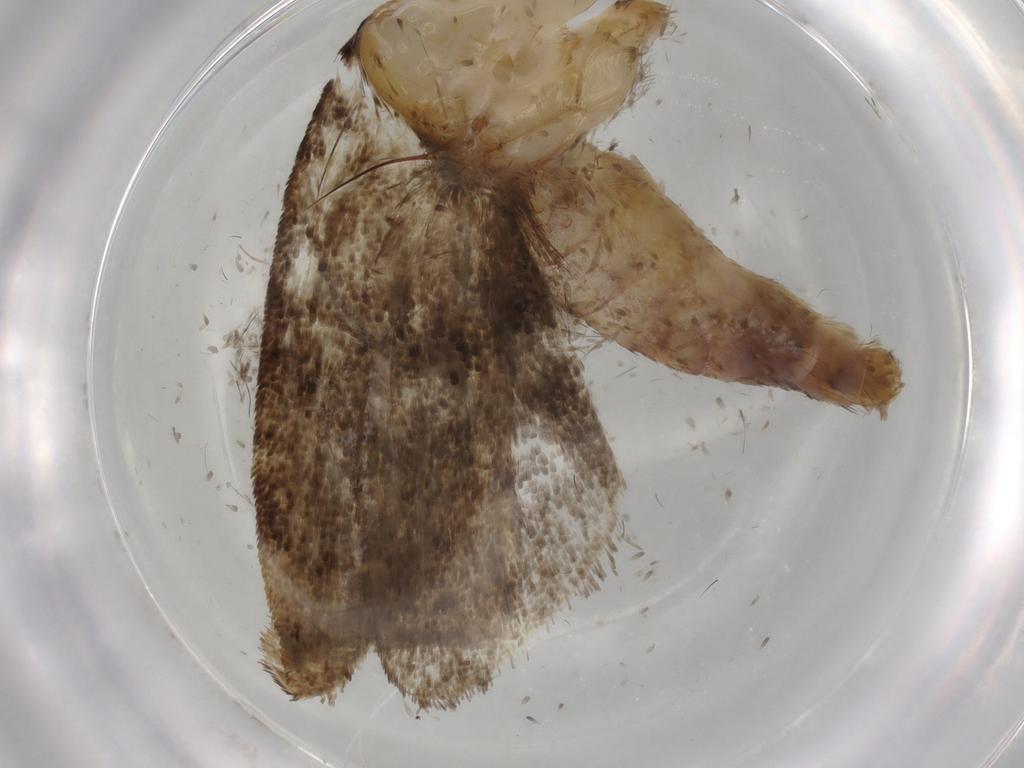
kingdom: Animalia
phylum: Arthropoda
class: Insecta
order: Lepidoptera
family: Tineidae
